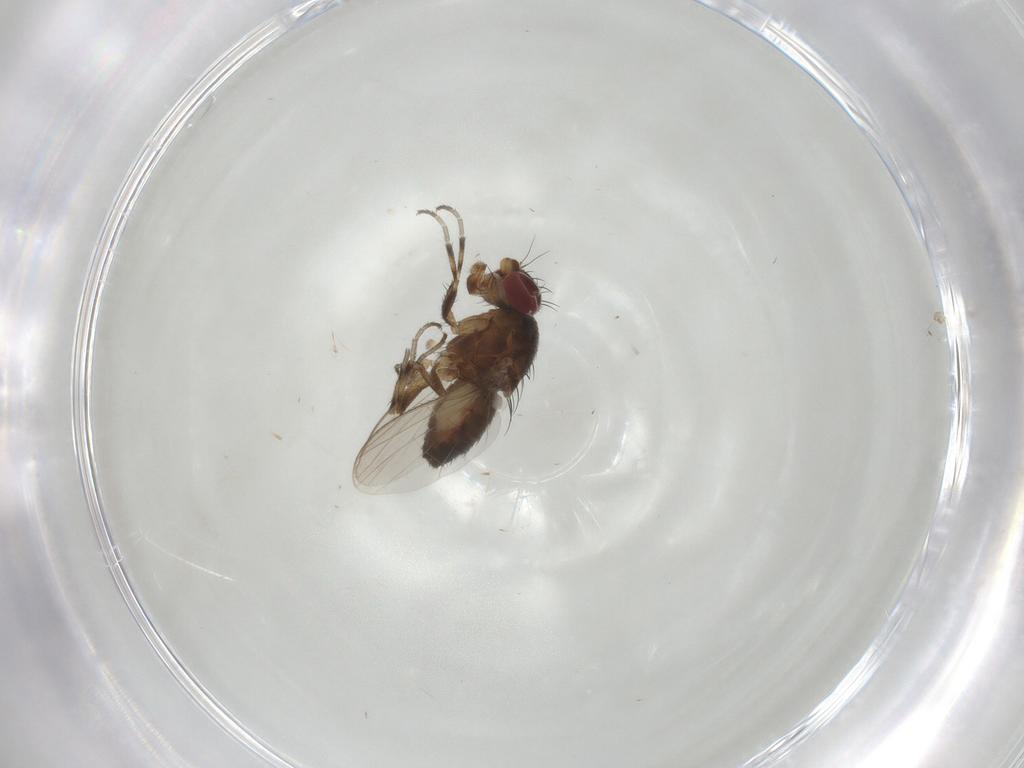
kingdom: Animalia
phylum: Arthropoda
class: Insecta
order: Diptera
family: Heleomyzidae
